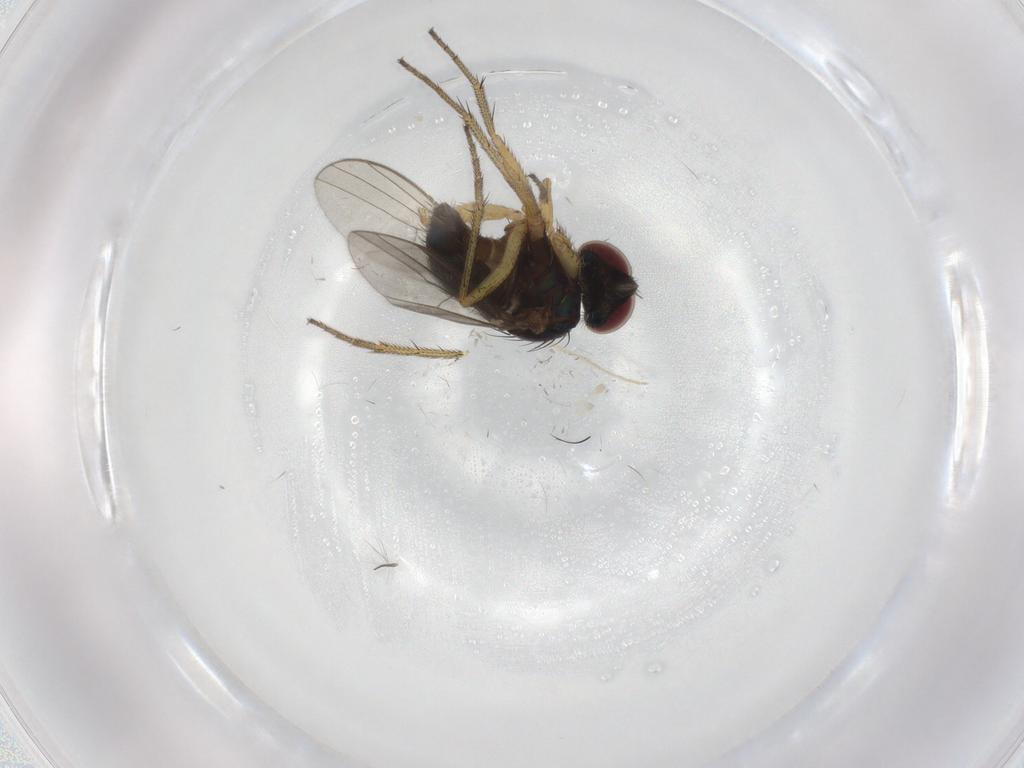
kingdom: Animalia
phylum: Arthropoda
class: Insecta
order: Diptera
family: Dolichopodidae
